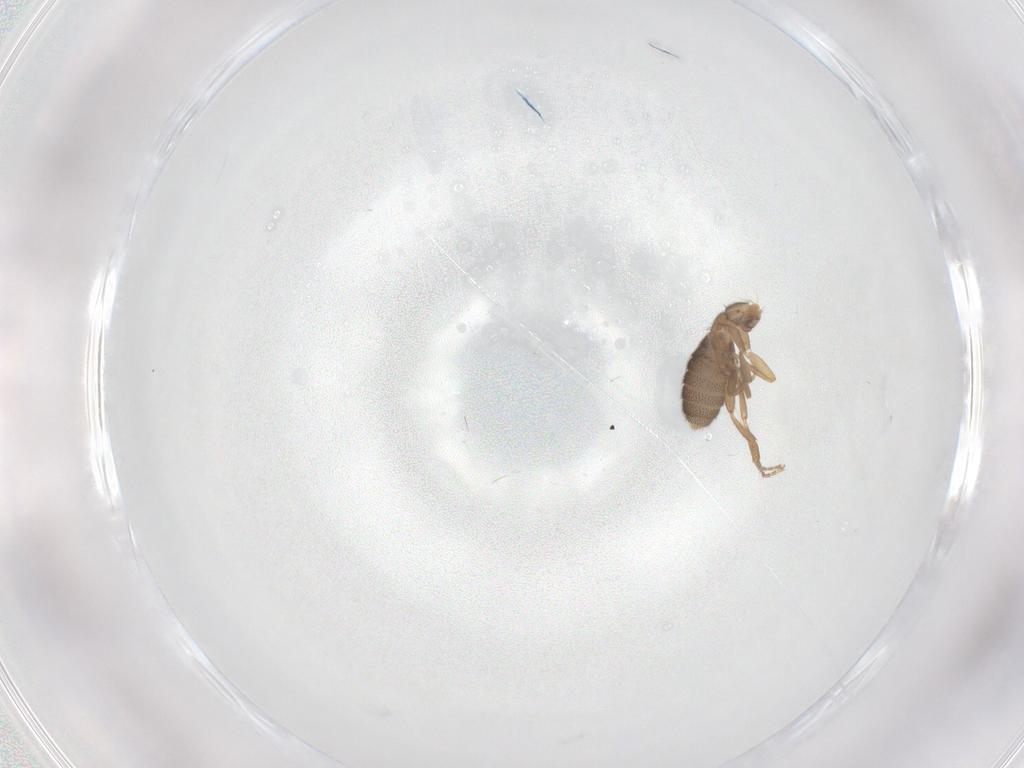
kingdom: Animalia
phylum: Arthropoda
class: Insecta
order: Diptera
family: Phoridae
